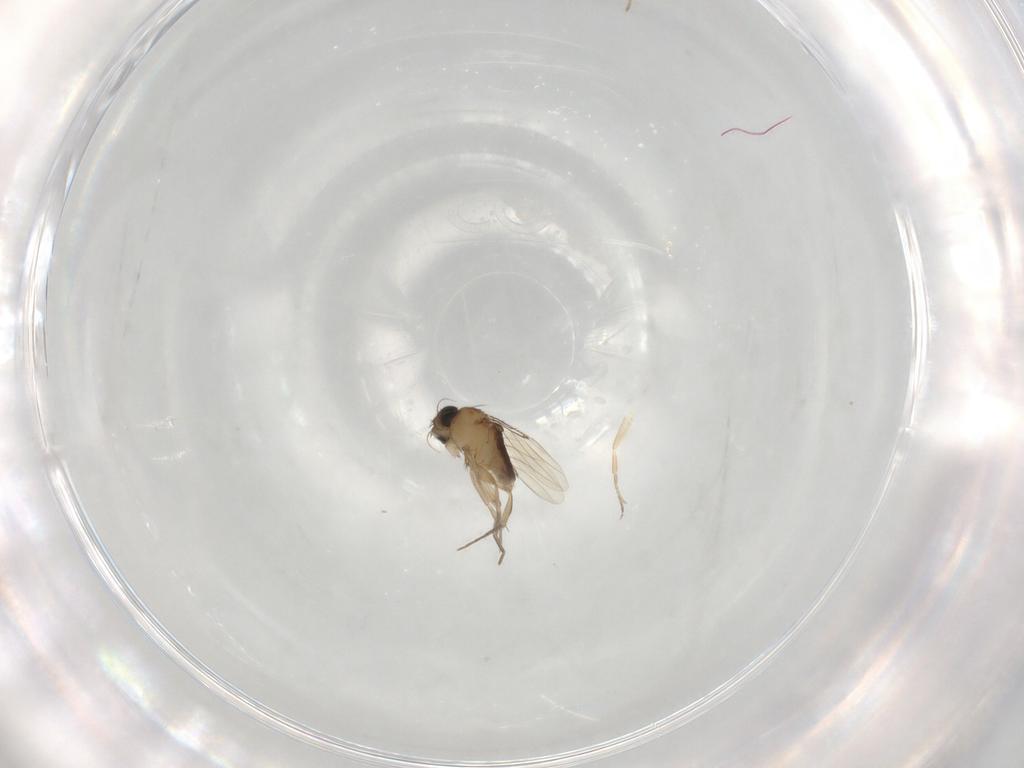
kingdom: Animalia
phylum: Arthropoda
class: Insecta
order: Diptera
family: Phoridae
